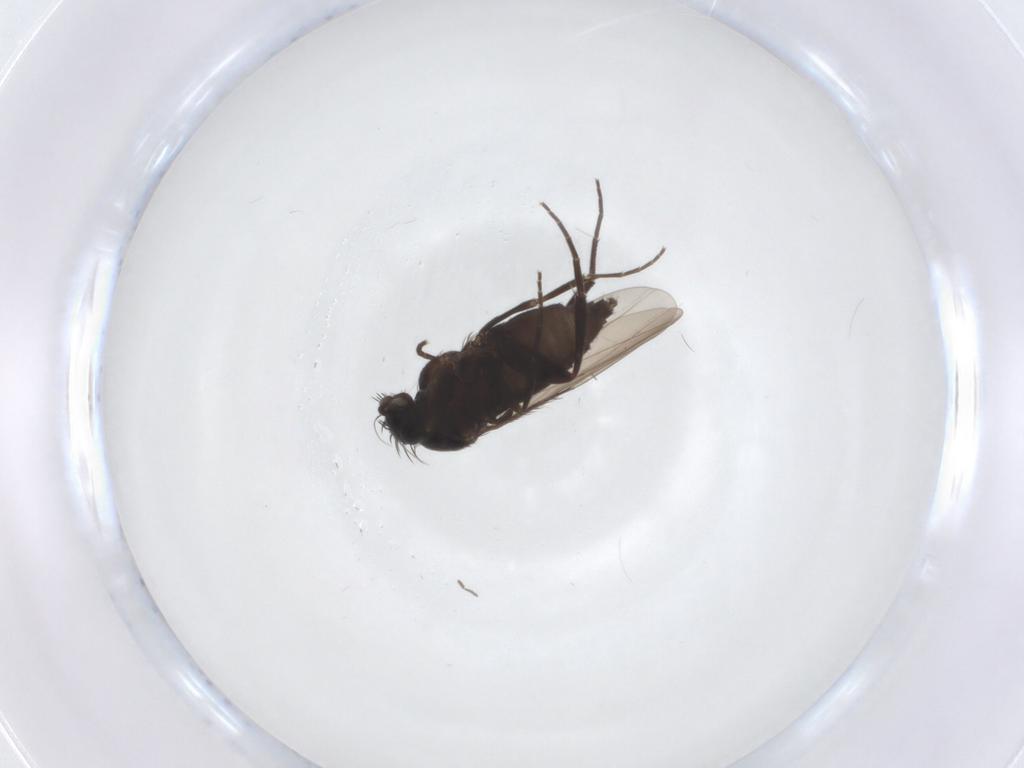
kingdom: Animalia
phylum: Arthropoda
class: Insecta
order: Diptera
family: Phoridae
